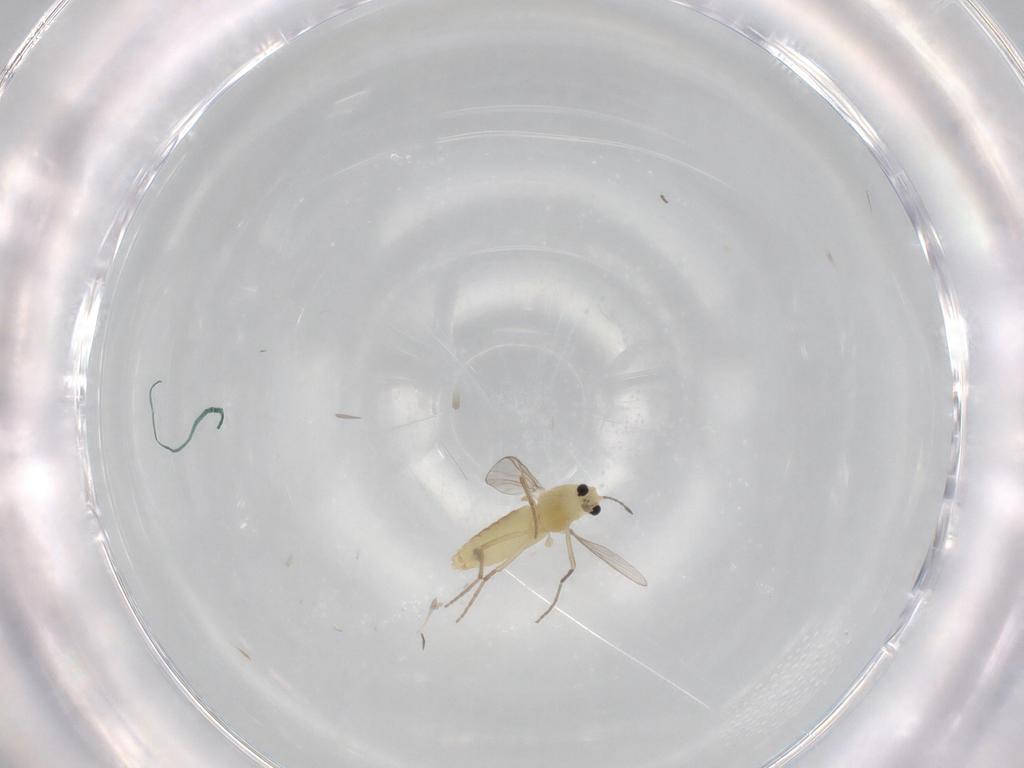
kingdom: Animalia
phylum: Arthropoda
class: Insecta
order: Diptera
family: Chironomidae
